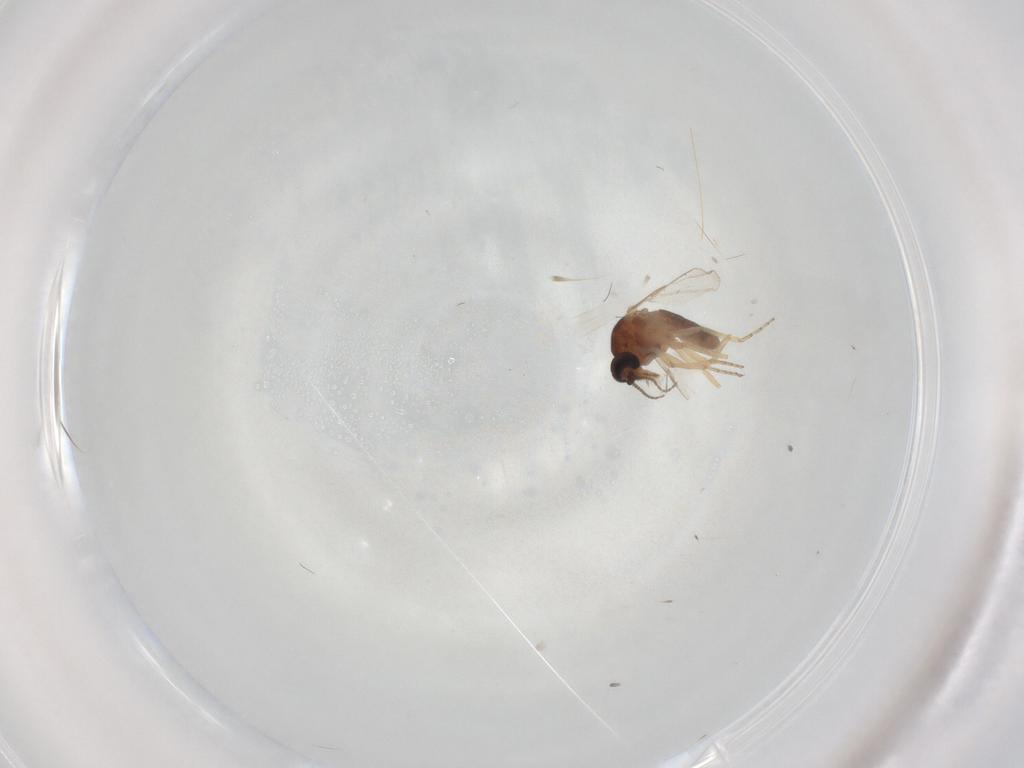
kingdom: Animalia
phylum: Arthropoda
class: Insecta
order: Diptera
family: Ceratopogonidae
